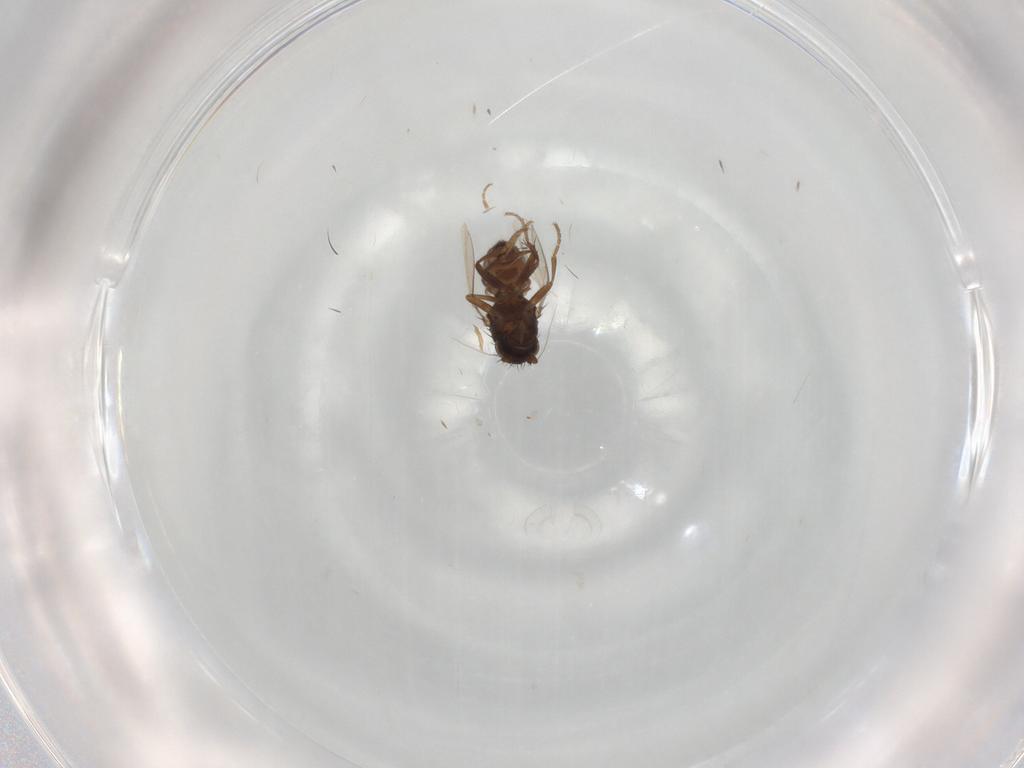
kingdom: Animalia
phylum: Arthropoda
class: Insecta
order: Diptera
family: Sphaeroceridae
